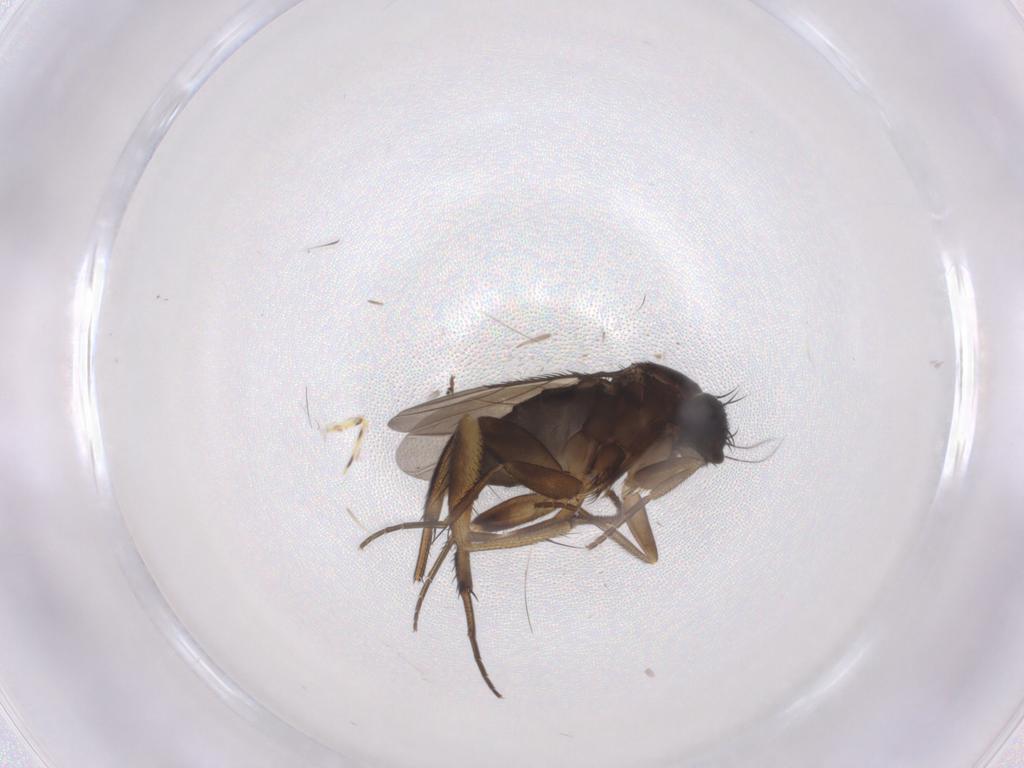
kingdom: Animalia
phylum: Arthropoda
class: Insecta
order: Diptera
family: Phoridae
